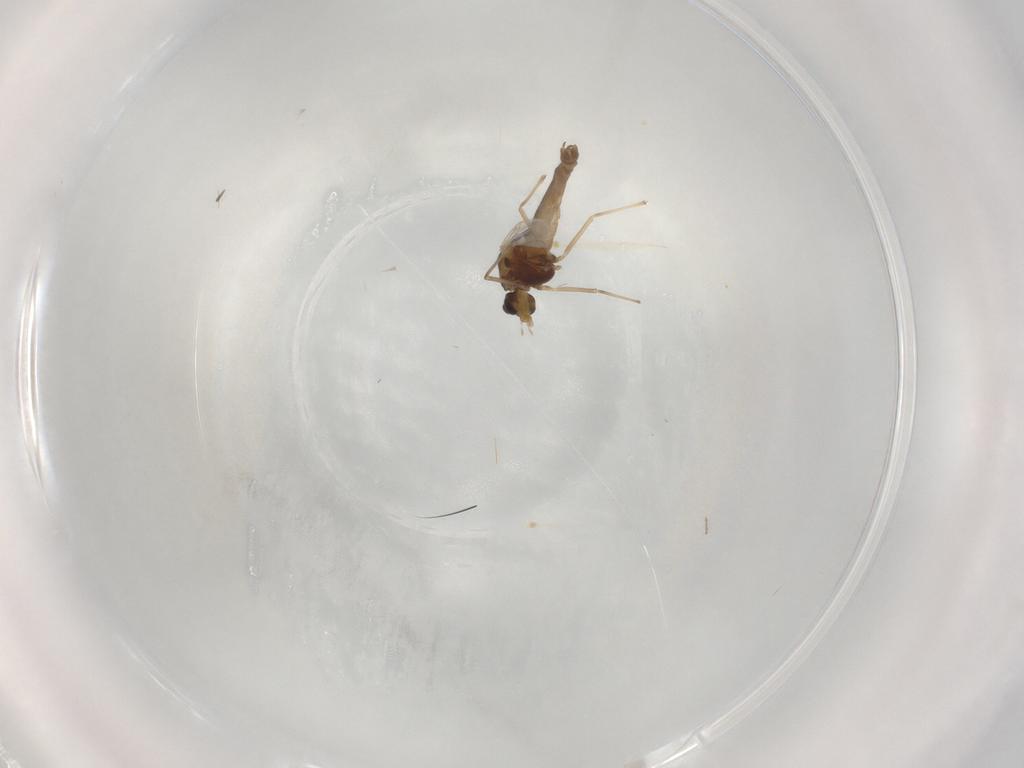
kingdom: Animalia
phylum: Arthropoda
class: Insecta
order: Diptera
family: Chironomidae
